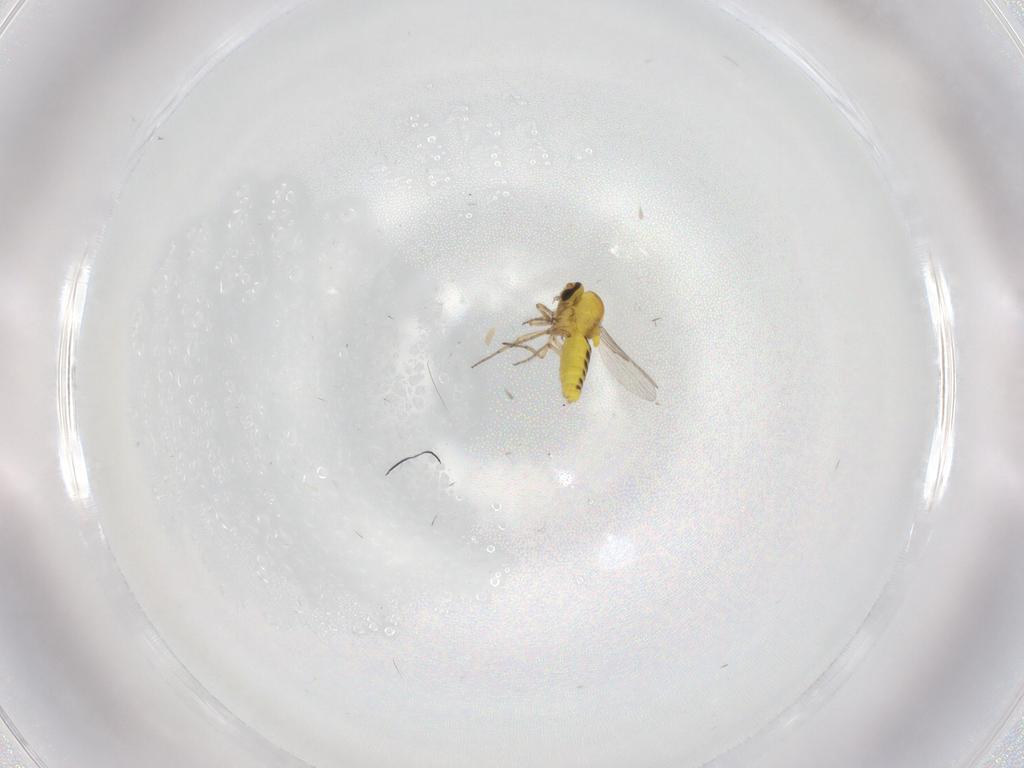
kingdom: Animalia
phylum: Arthropoda
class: Insecta
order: Diptera
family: Ceratopogonidae
